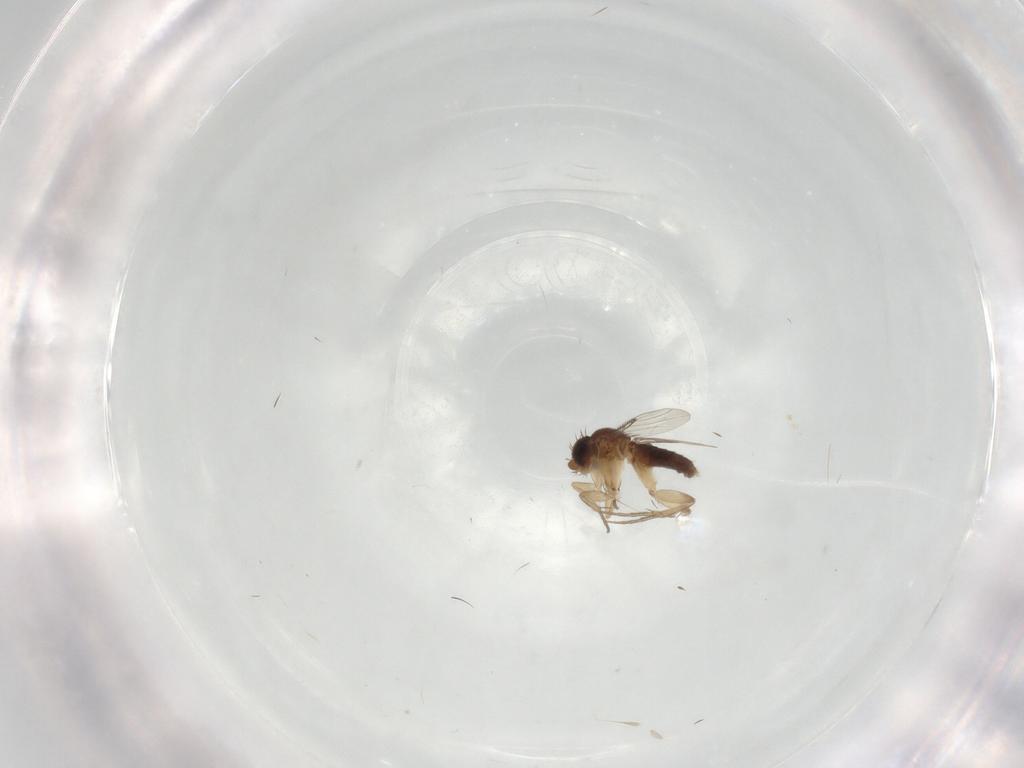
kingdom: Animalia
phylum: Arthropoda
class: Insecta
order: Diptera
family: Phoridae
